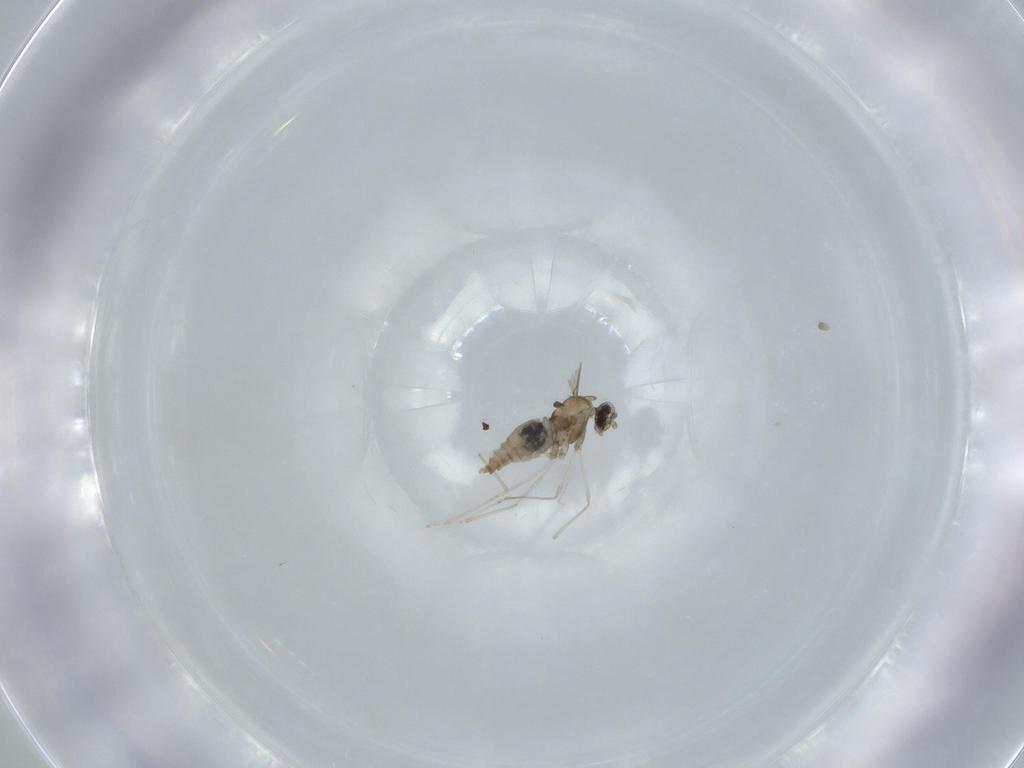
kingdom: Animalia
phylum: Arthropoda
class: Insecta
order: Diptera
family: Cecidomyiidae
